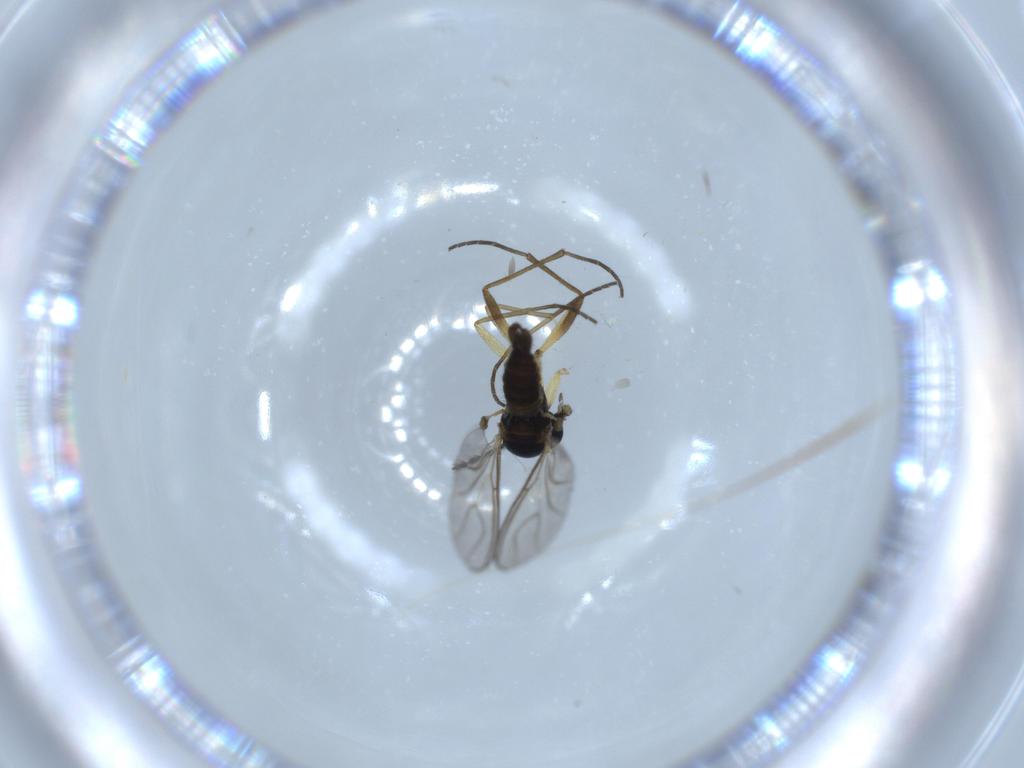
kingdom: Animalia
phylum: Arthropoda
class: Insecta
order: Diptera
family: Sciaridae
